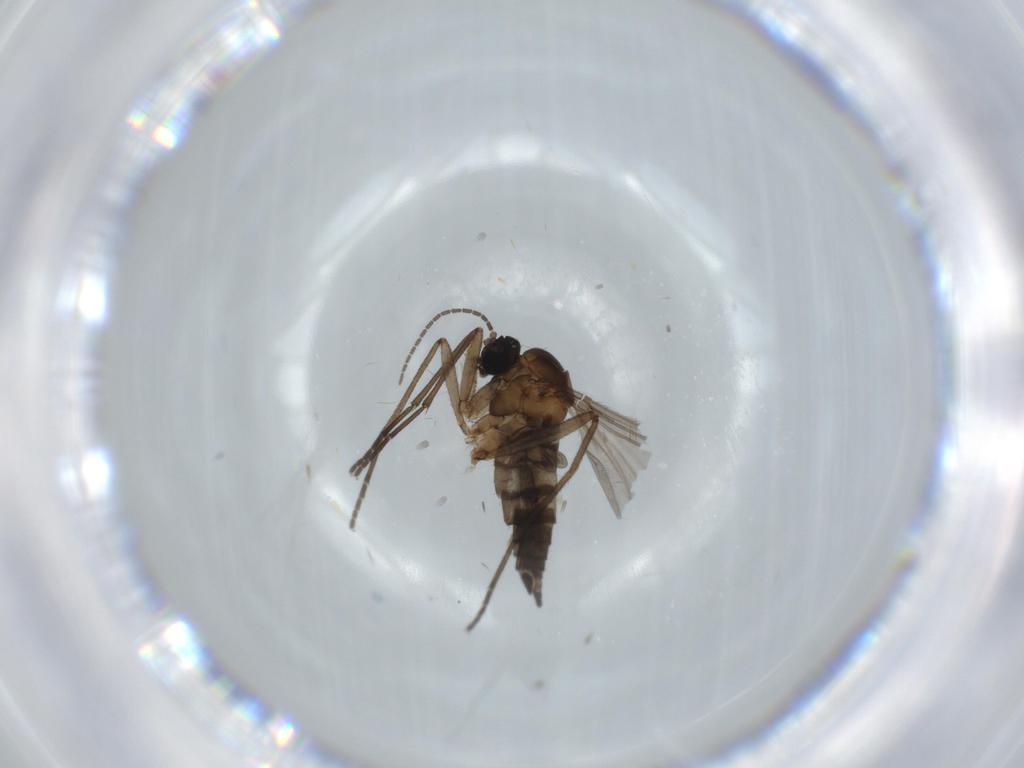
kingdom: Animalia
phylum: Arthropoda
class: Insecta
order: Diptera
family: Sciaridae
